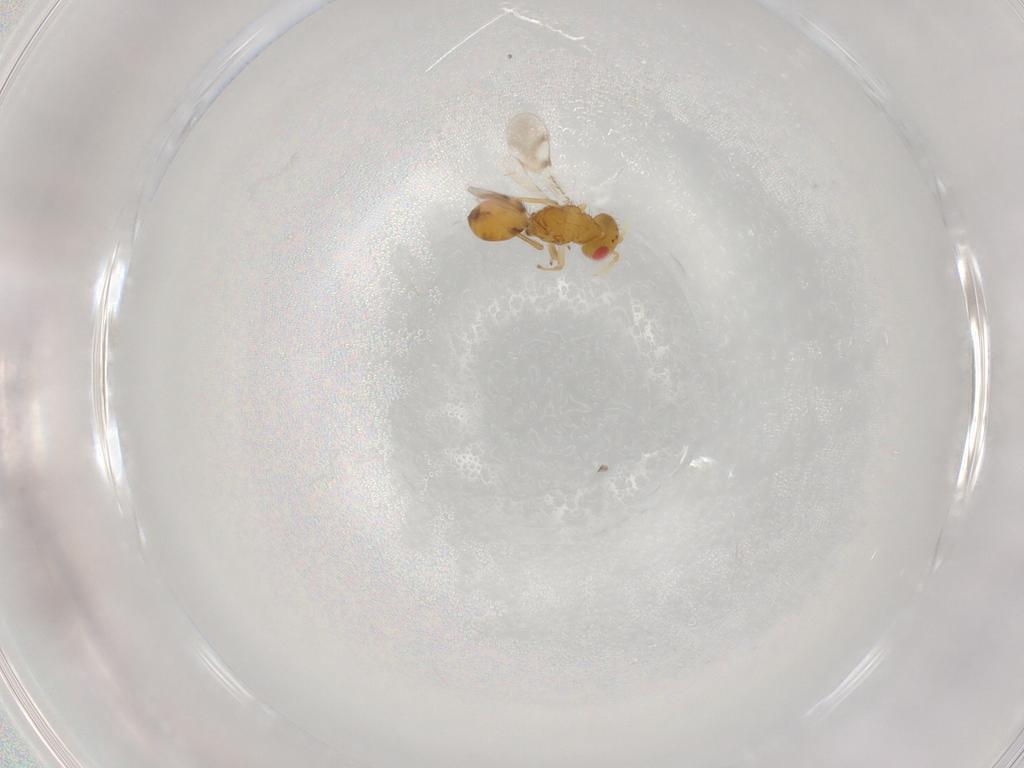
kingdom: Animalia
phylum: Arthropoda
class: Insecta
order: Hymenoptera
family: Eulophidae
